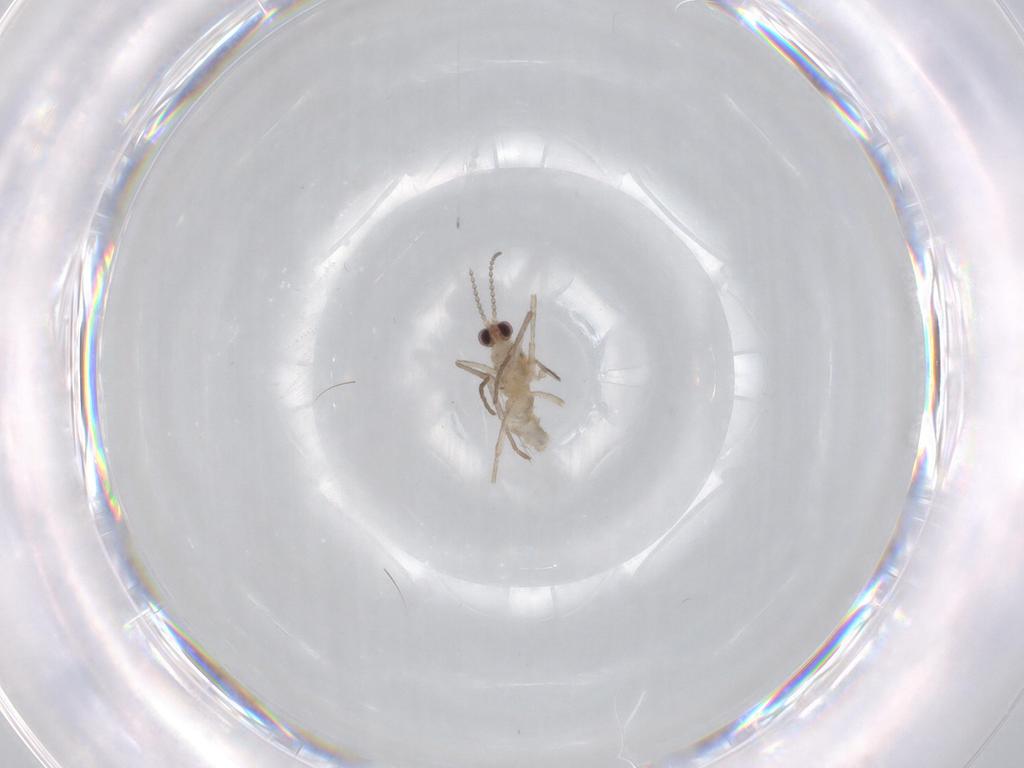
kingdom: Animalia
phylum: Arthropoda
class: Insecta
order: Diptera
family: Cecidomyiidae
